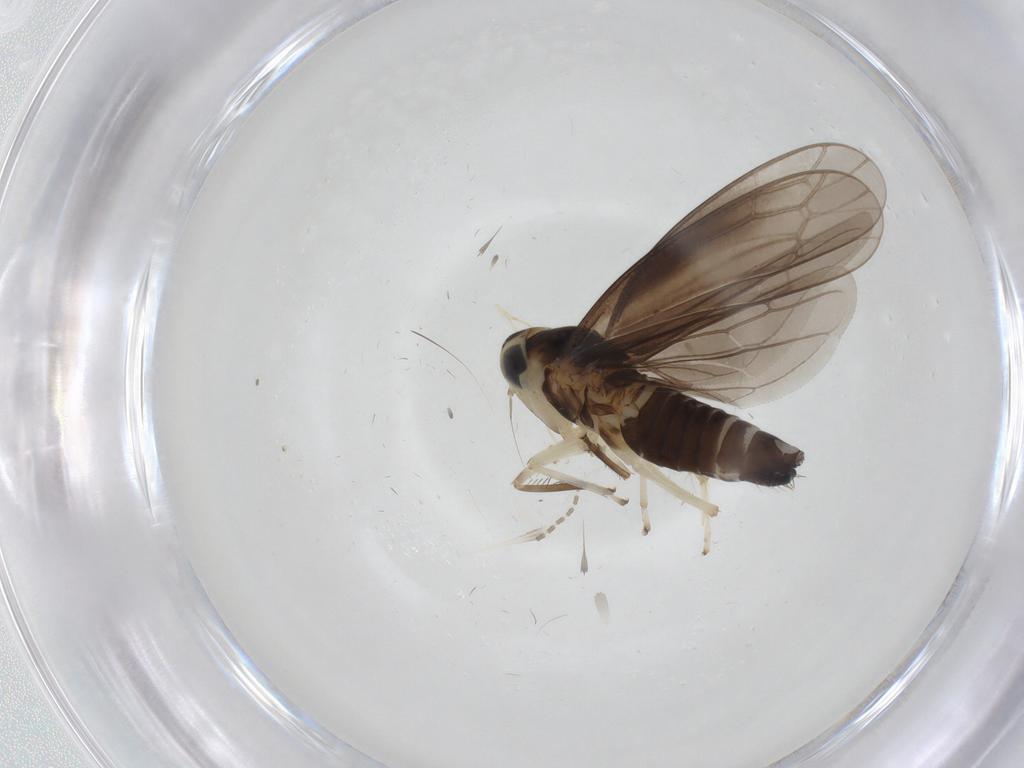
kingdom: Animalia
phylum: Arthropoda
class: Insecta
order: Hemiptera
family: Cicadellidae
